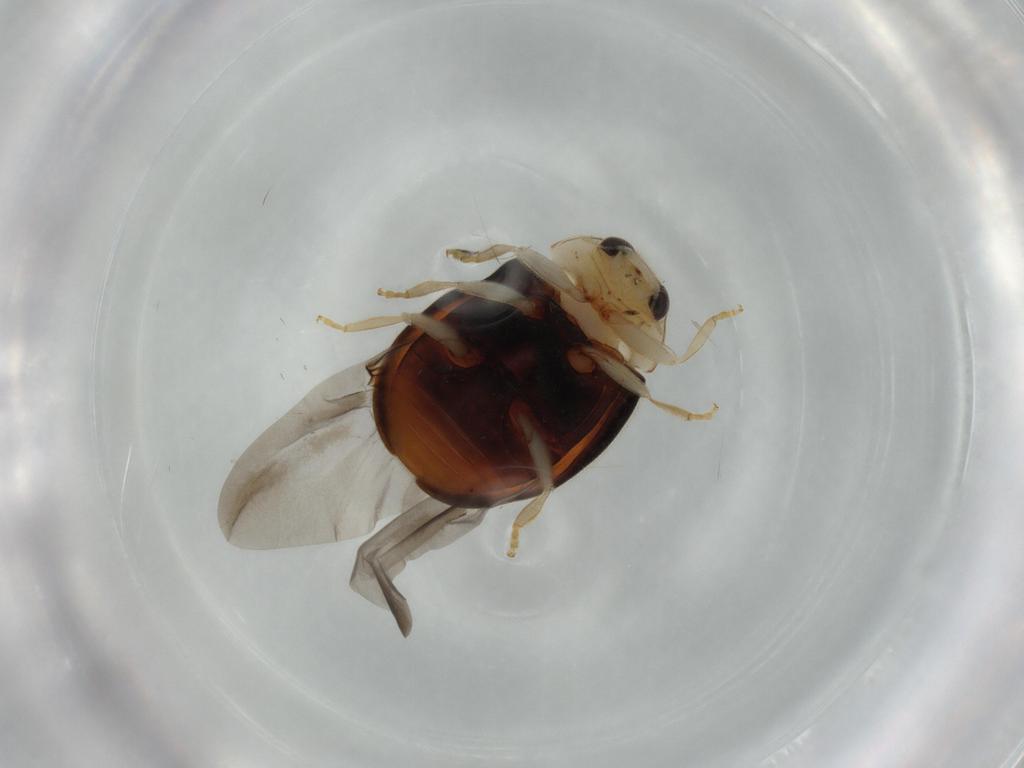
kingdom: Animalia
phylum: Arthropoda
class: Insecta
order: Coleoptera
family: Coccinellidae
